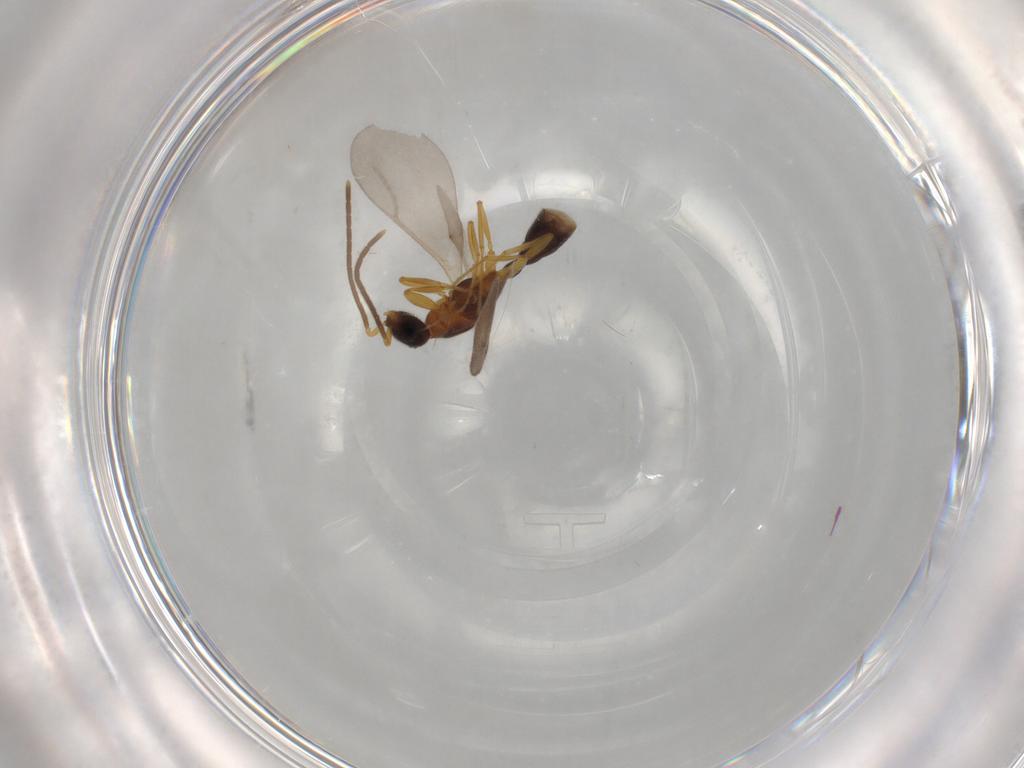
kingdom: Animalia
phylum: Arthropoda
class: Insecta
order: Hymenoptera
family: Formicidae
